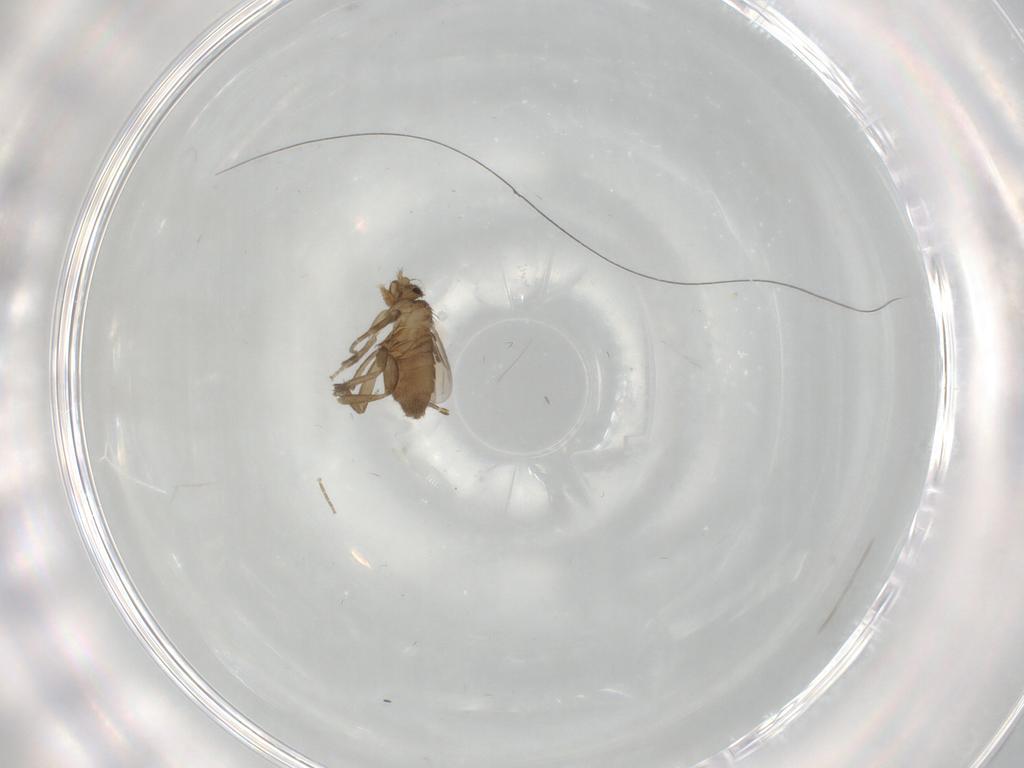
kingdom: Animalia
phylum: Arthropoda
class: Insecta
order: Diptera
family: Sciaridae
